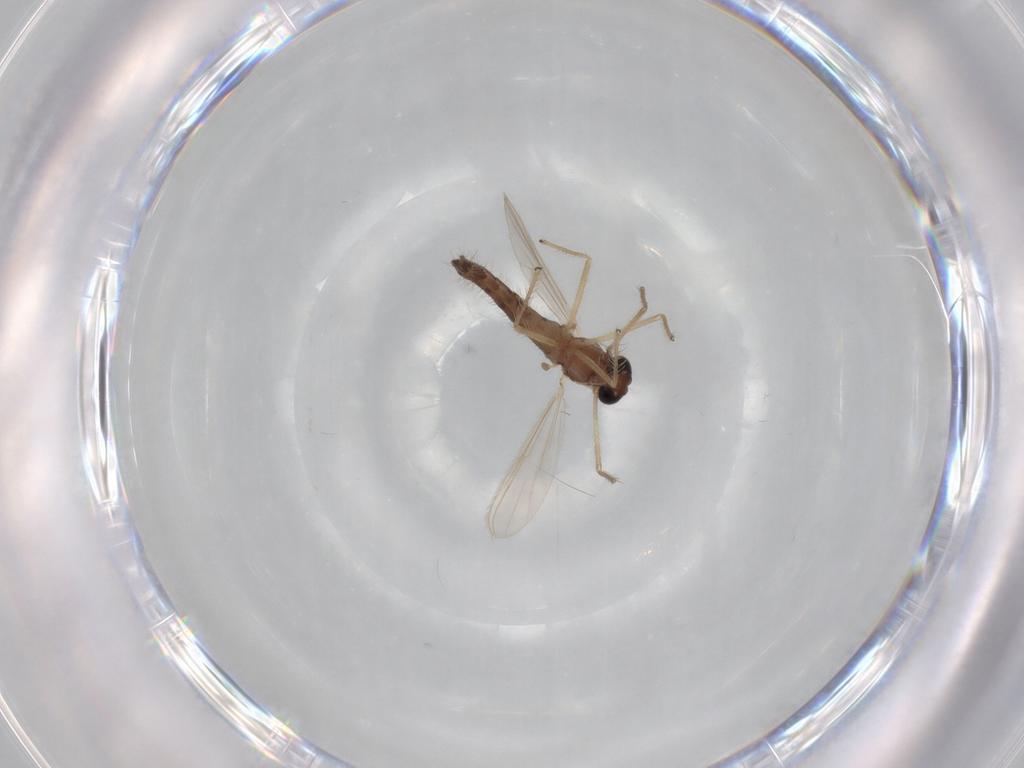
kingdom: Animalia
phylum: Arthropoda
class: Insecta
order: Diptera
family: Chironomidae
